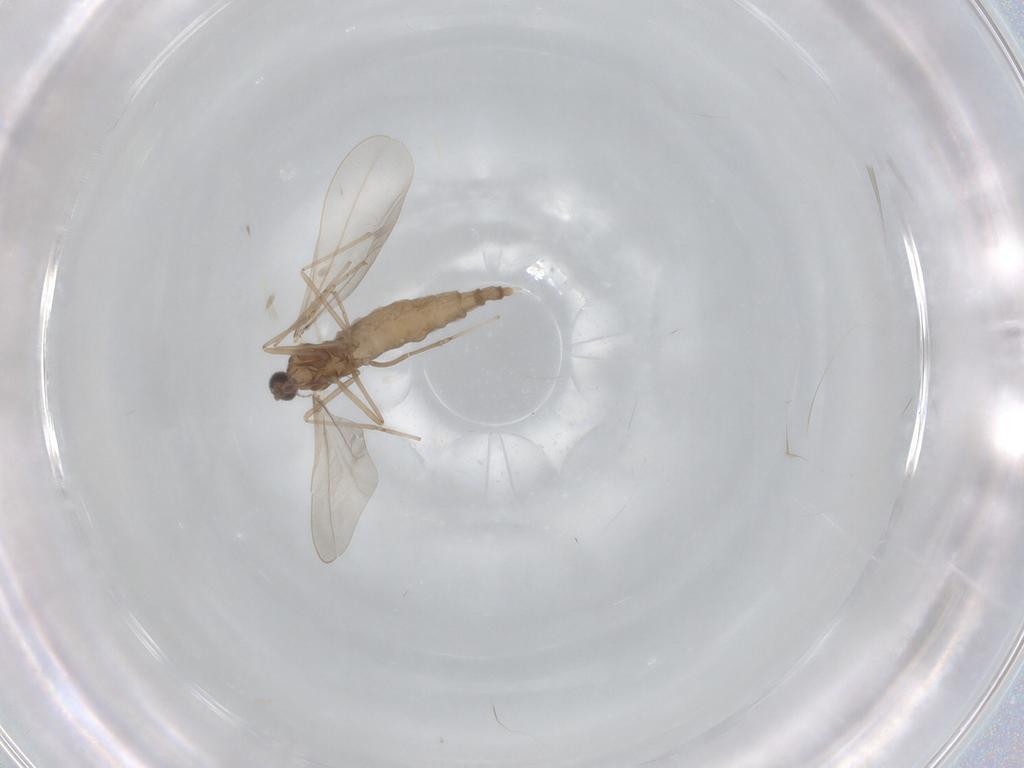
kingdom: Animalia
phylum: Arthropoda
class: Insecta
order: Diptera
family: Cecidomyiidae
